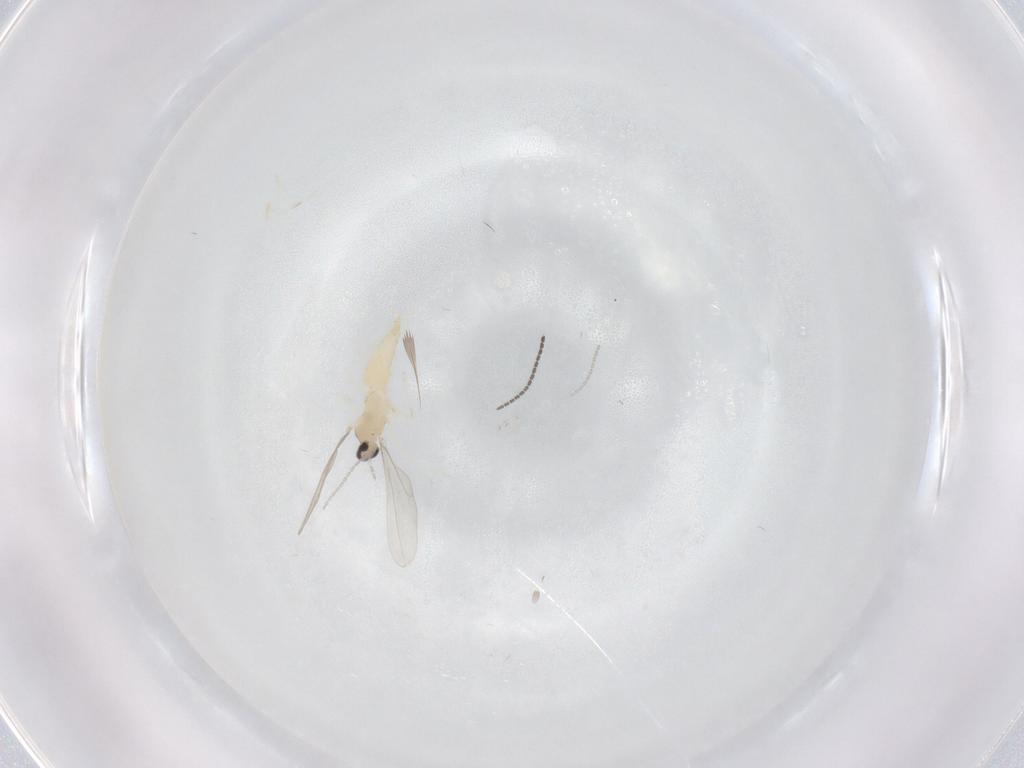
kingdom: Animalia
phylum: Arthropoda
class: Insecta
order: Diptera
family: Cecidomyiidae
